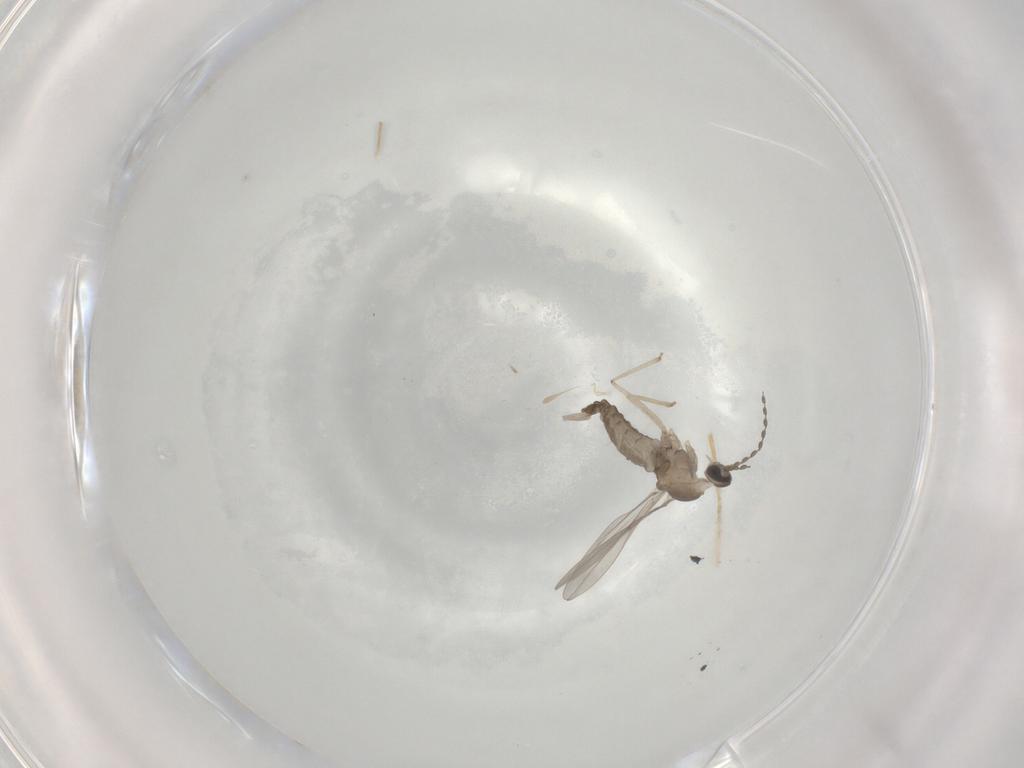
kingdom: Animalia
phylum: Arthropoda
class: Insecta
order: Diptera
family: Cecidomyiidae
